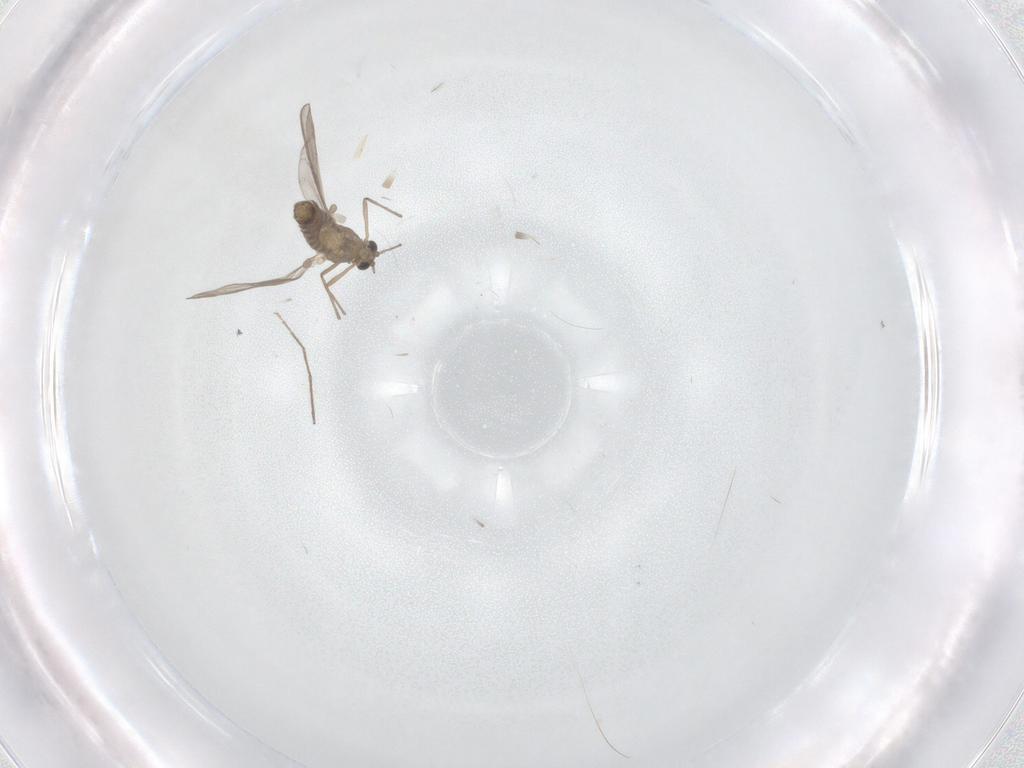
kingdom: Animalia
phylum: Arthropoda
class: Insecta
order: Diptera
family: Chironomidae
